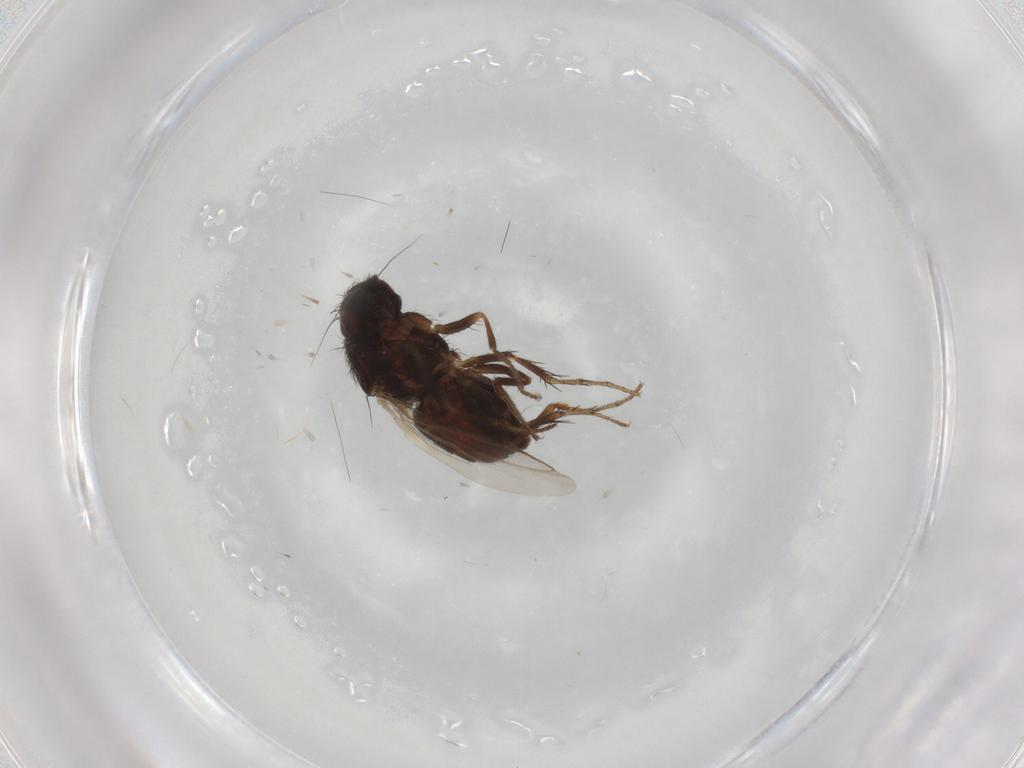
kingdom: Animalia
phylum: Arthropoda
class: Insecta
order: Diptera
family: Sphaeroceridae
